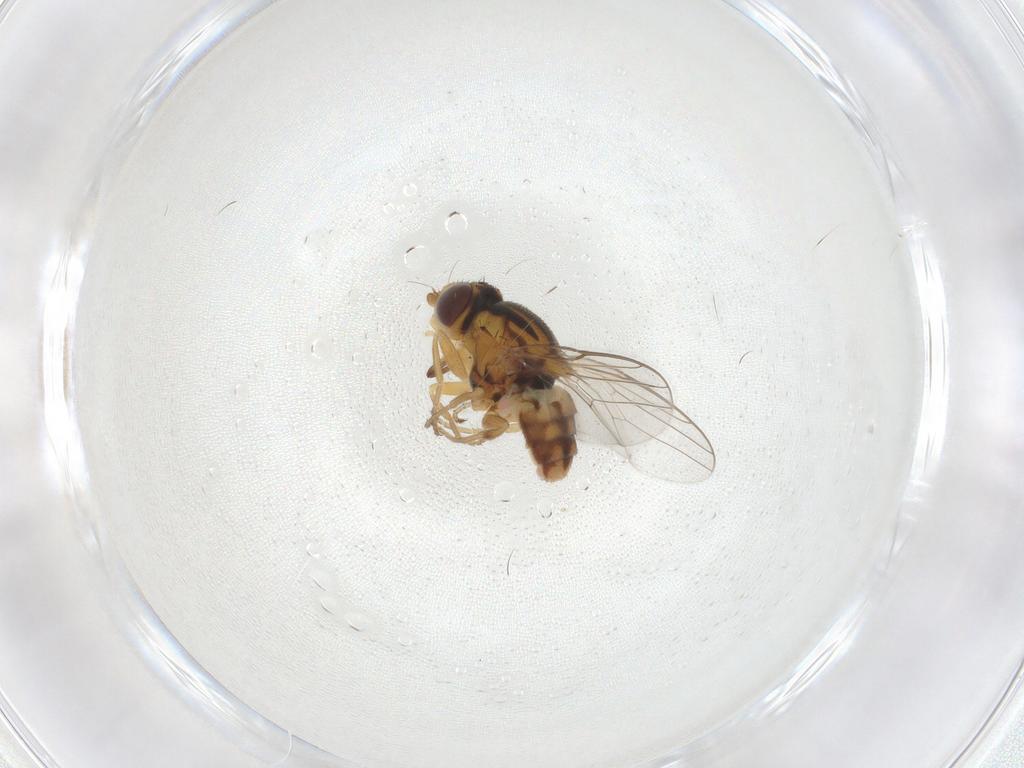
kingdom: Animalia
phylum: Arthropoda
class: Insecta
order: Diptera
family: Chloropidae
